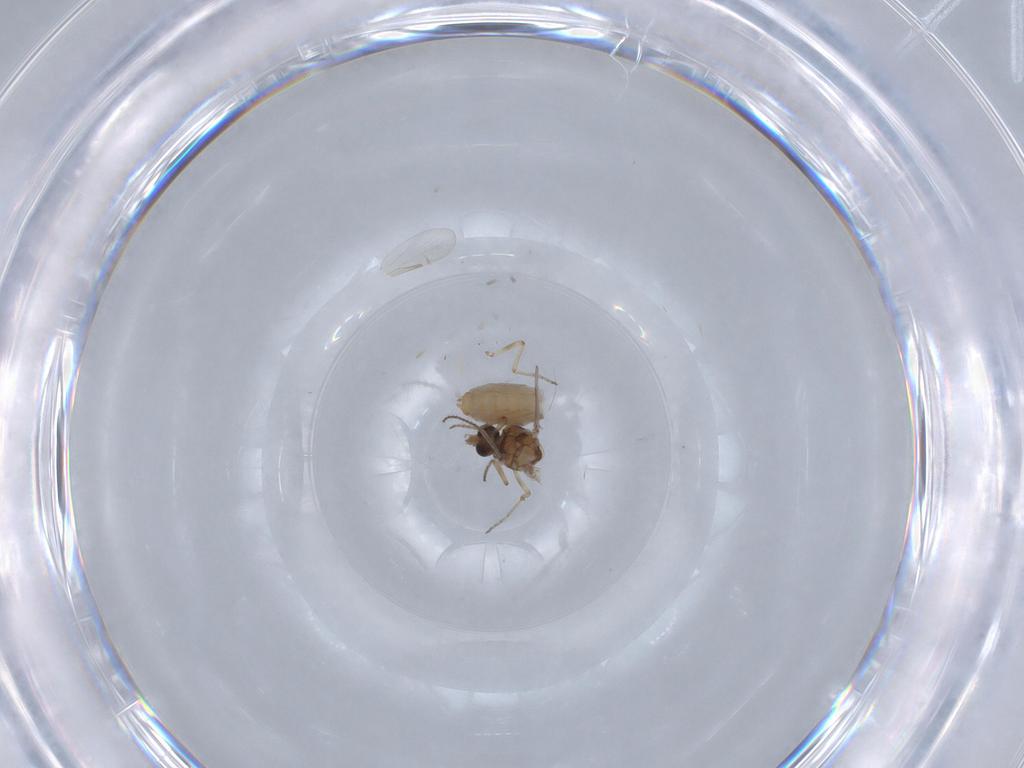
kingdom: Animalia
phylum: Arthropoda
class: Insecta
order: Diptera
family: Ceratopogonidae
